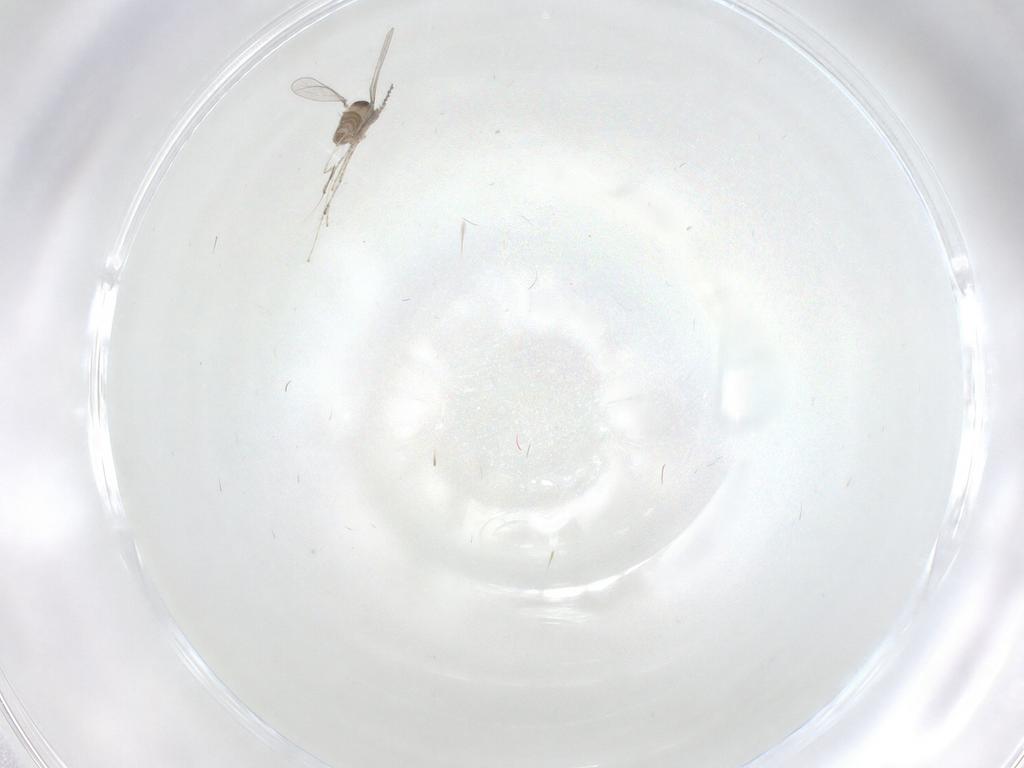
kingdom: Animalia
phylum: Arthropoda
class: Insecta
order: Diptera
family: Cecidomyiidae
